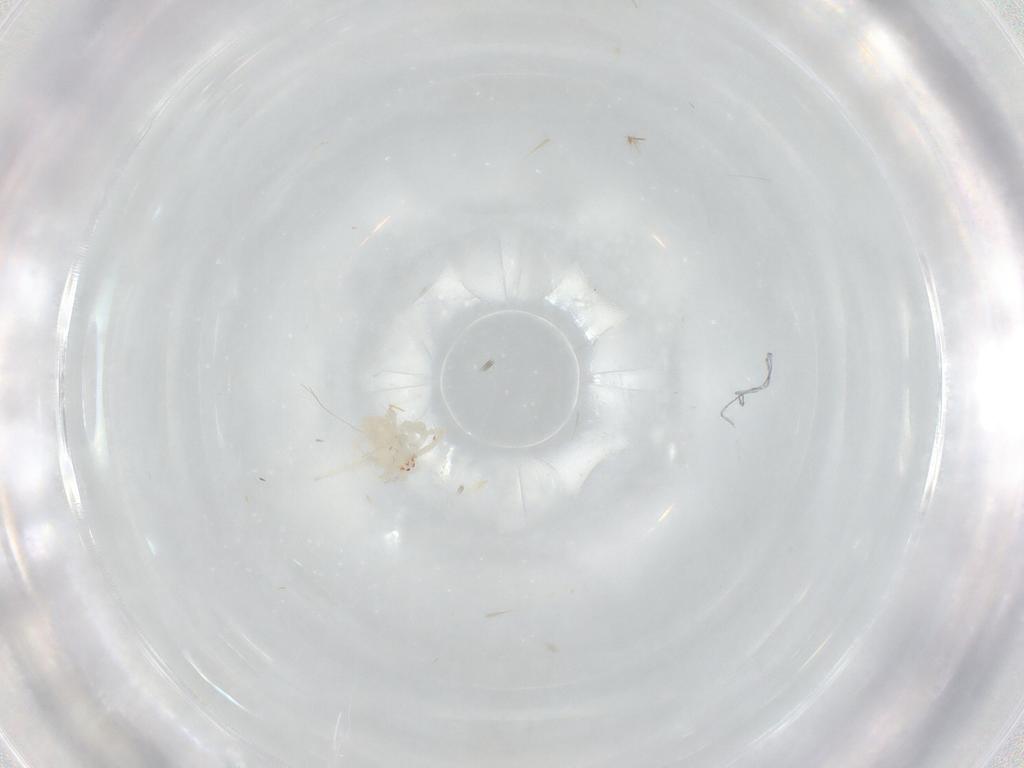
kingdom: Animalia
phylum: Arthropoda
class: Arachnida
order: Araneae
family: Theridiidae
